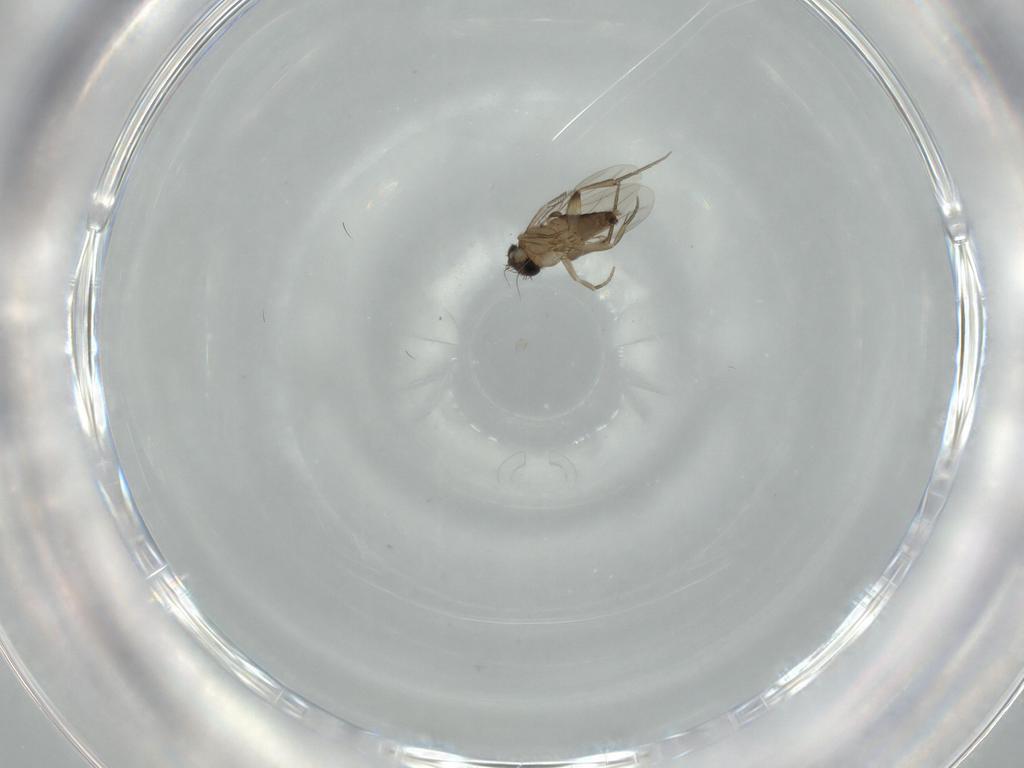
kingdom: Animalia
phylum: Arthropoda
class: Insecta
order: Diptera
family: Phoridae
